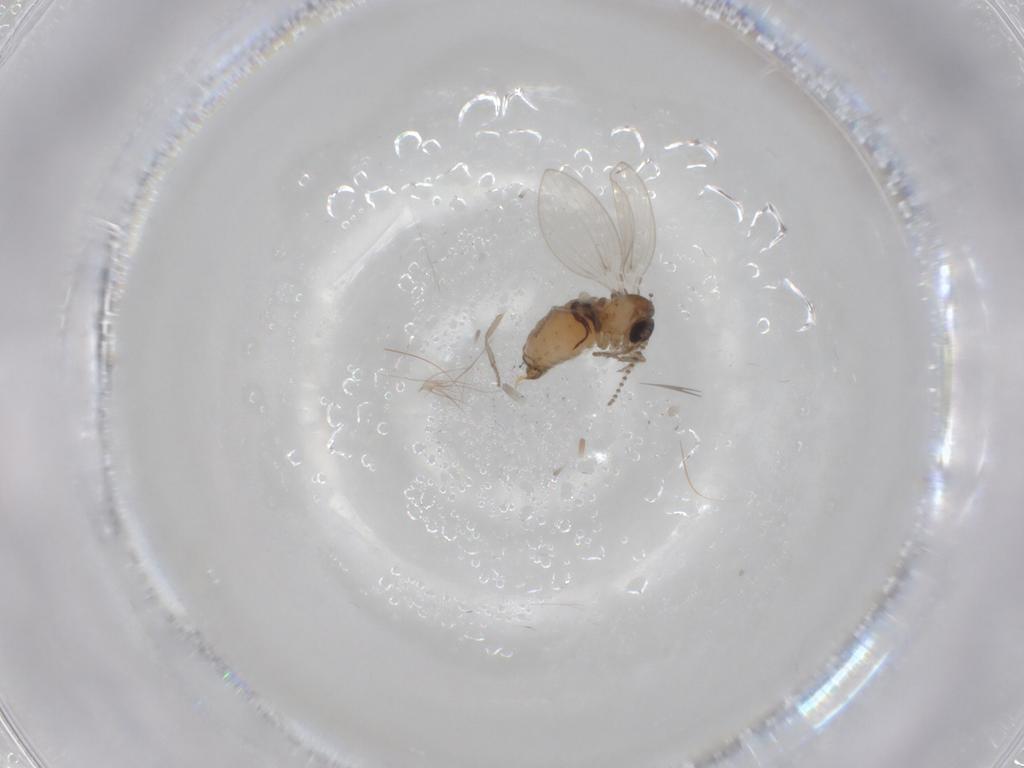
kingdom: Animalia
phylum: Arthropoda
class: Insecta
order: Diptera
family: Psychodidae
